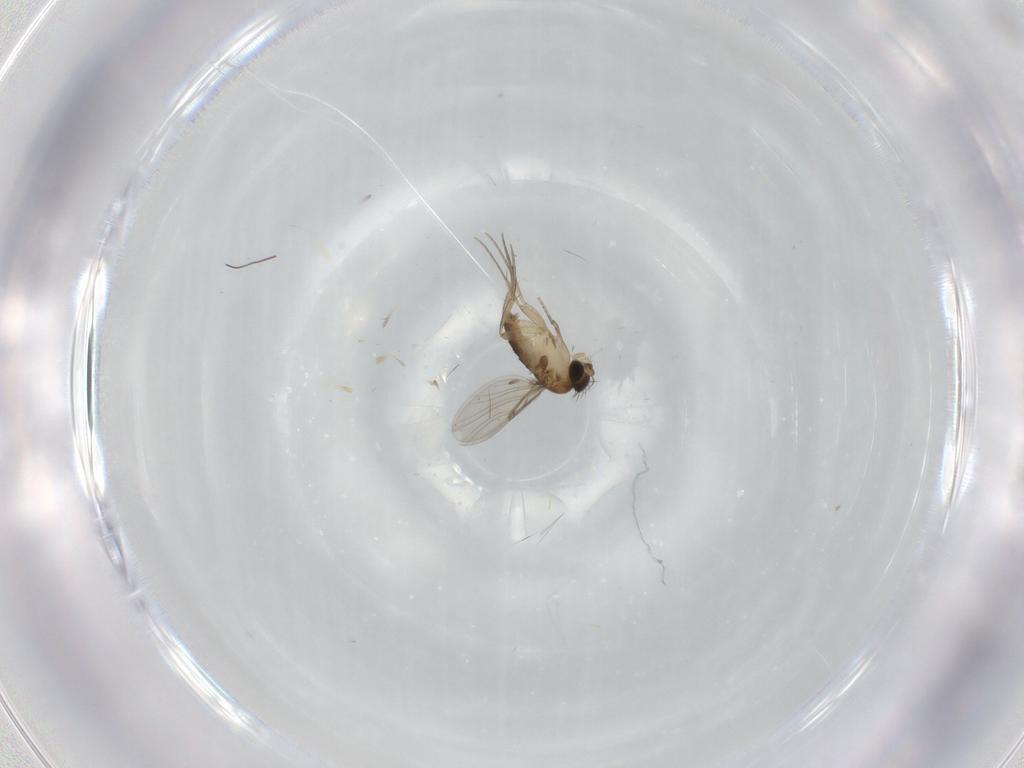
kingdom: Animalia
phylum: Arthropoda
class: Insecta
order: Diptera
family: Phoridae
